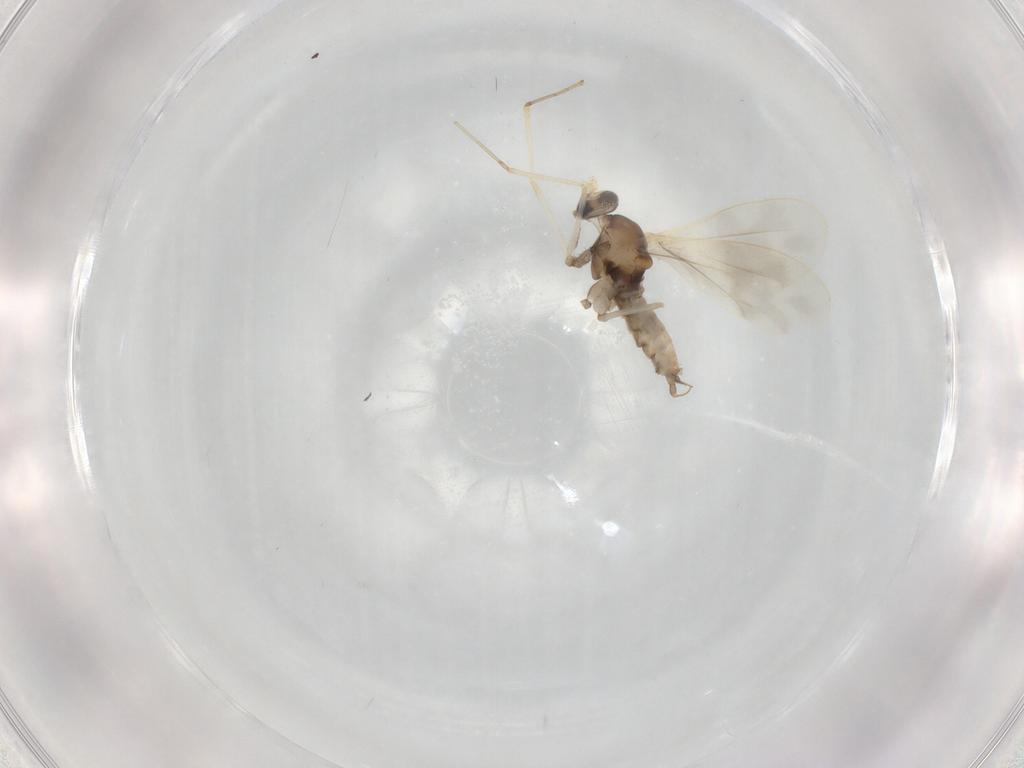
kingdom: Animalia
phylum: Arthropoda
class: Insecta
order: Diptera
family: Cecidomyiidae
